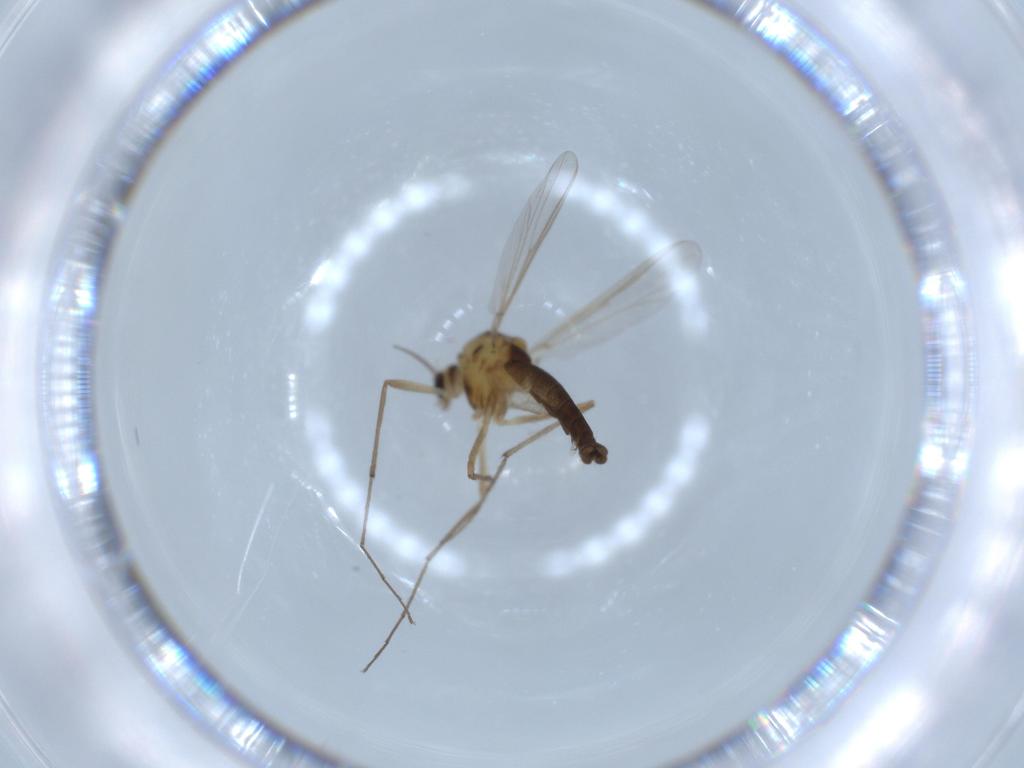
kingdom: Animalia
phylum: Arthropoda
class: Insecta
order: Diptera
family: Chironomidae
